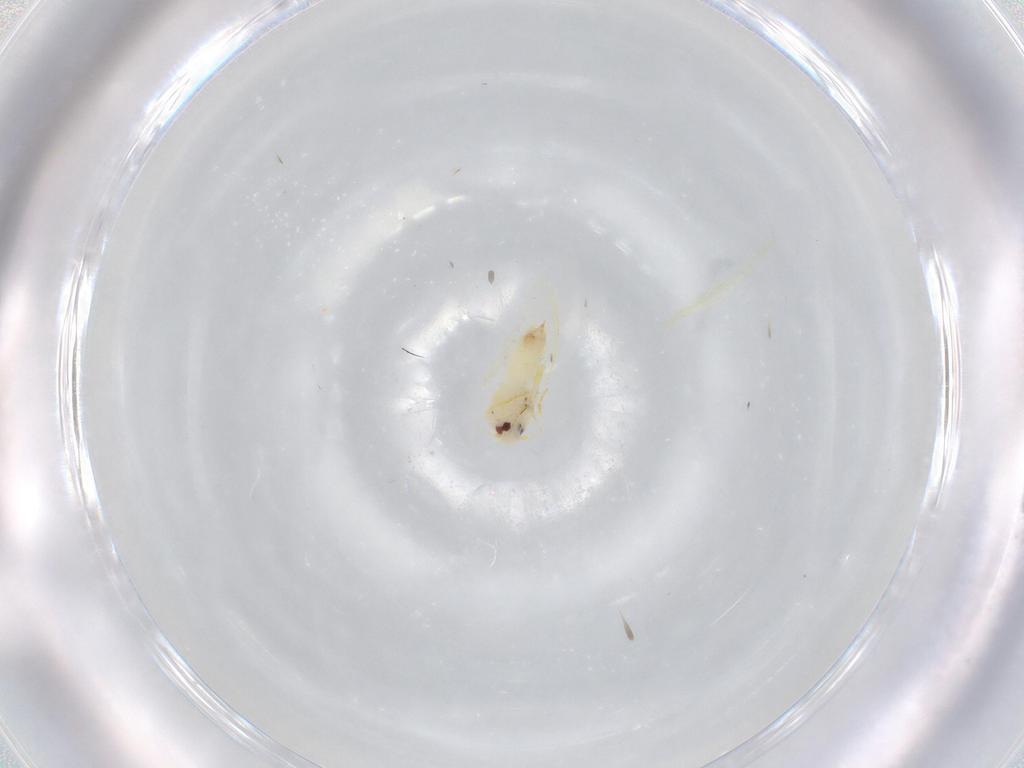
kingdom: Animalia
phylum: Arthropoda
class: Insecta
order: Hemiptera
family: Aleyrodidae
